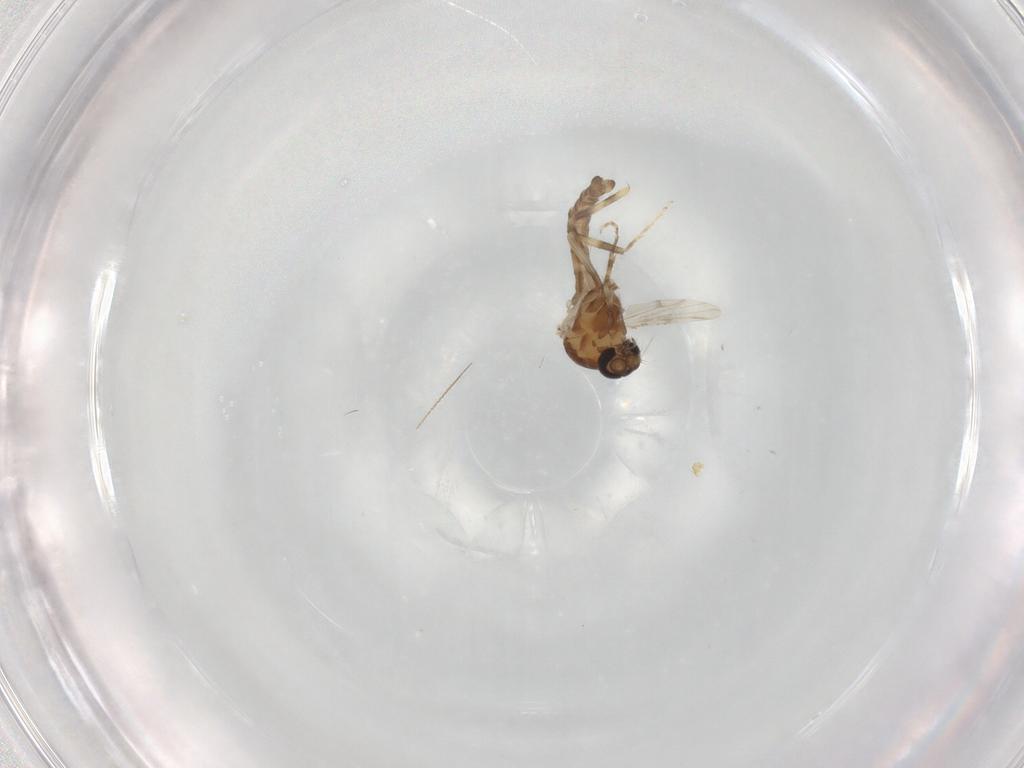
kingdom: Animalia
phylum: Arthropoda
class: Insecta
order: Diptera
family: Ceratopogonidae
